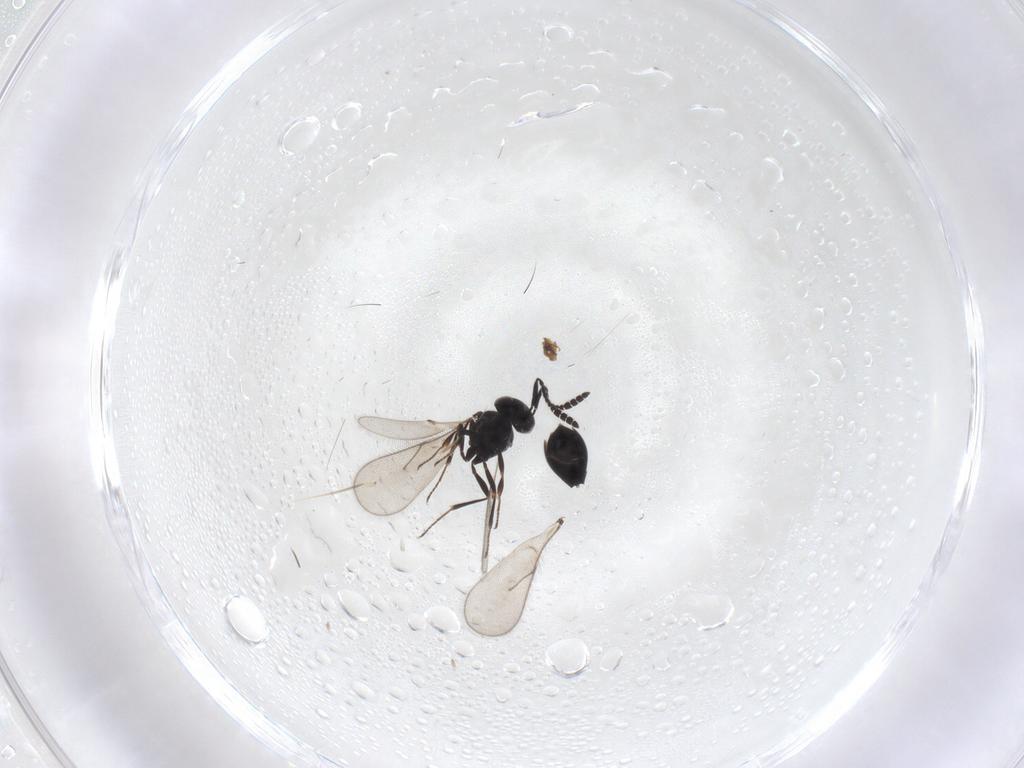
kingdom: Animalia
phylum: Arthropoda
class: Insecta
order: Hymenoptera
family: Scelionidae
